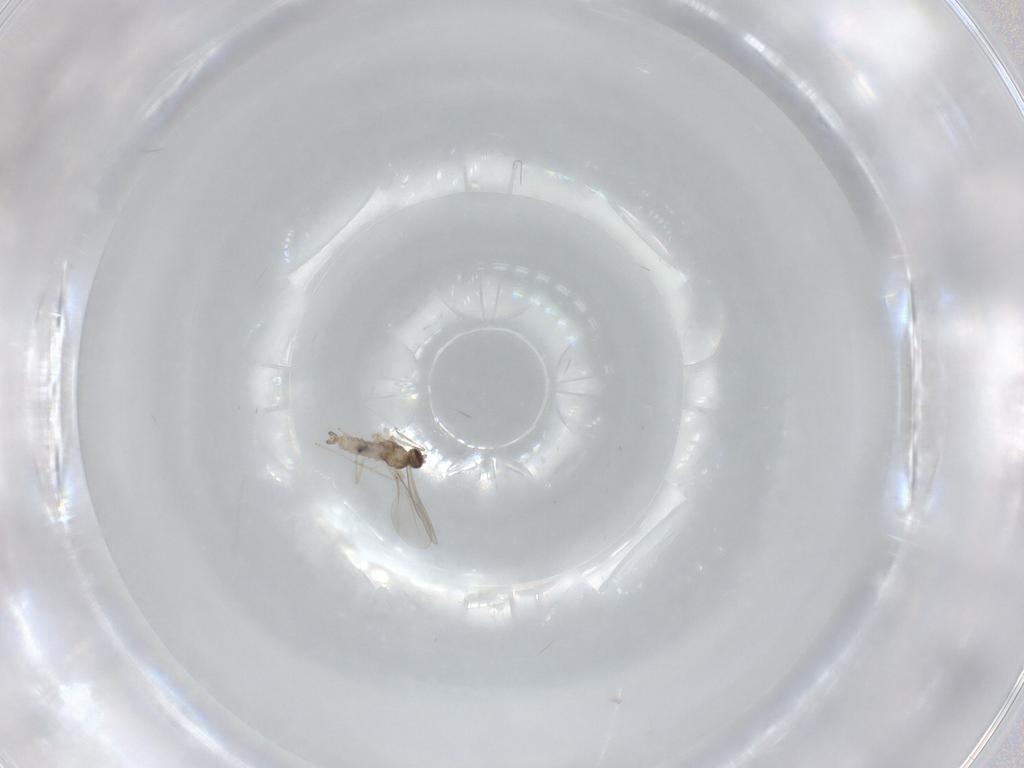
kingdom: Animalia
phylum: Arthropoda
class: Insecta
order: Diptera
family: Cecidomyiidae
